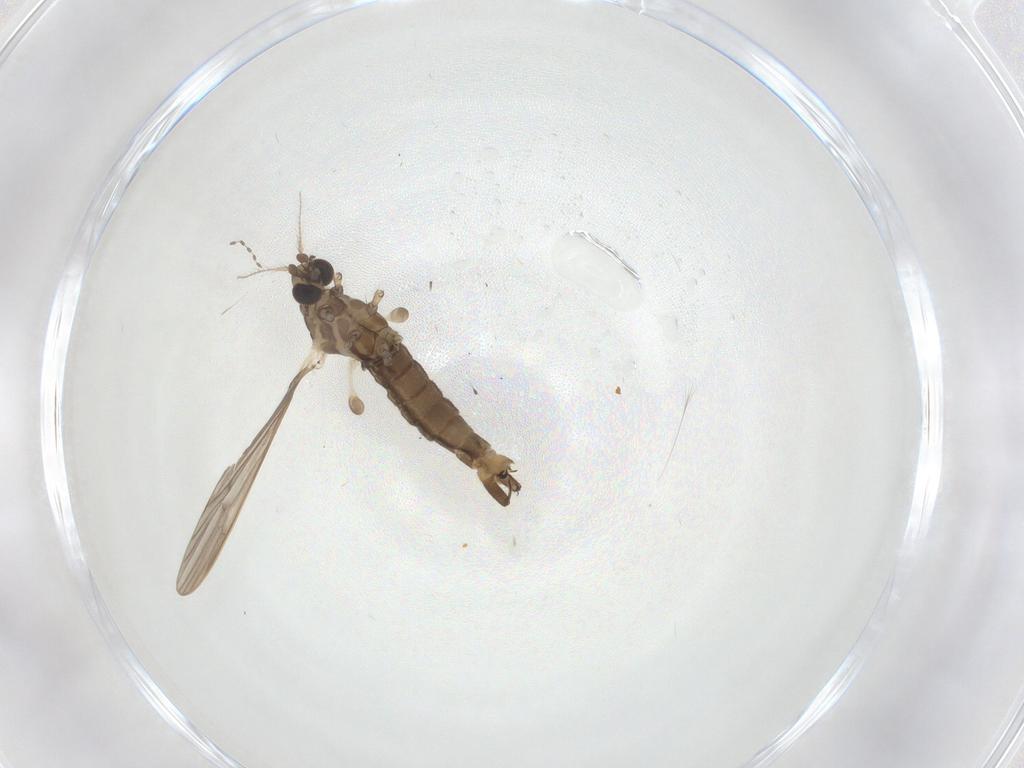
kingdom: Animalia
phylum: Arthropoda
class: Insecta
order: Diptera
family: Limoniidae
